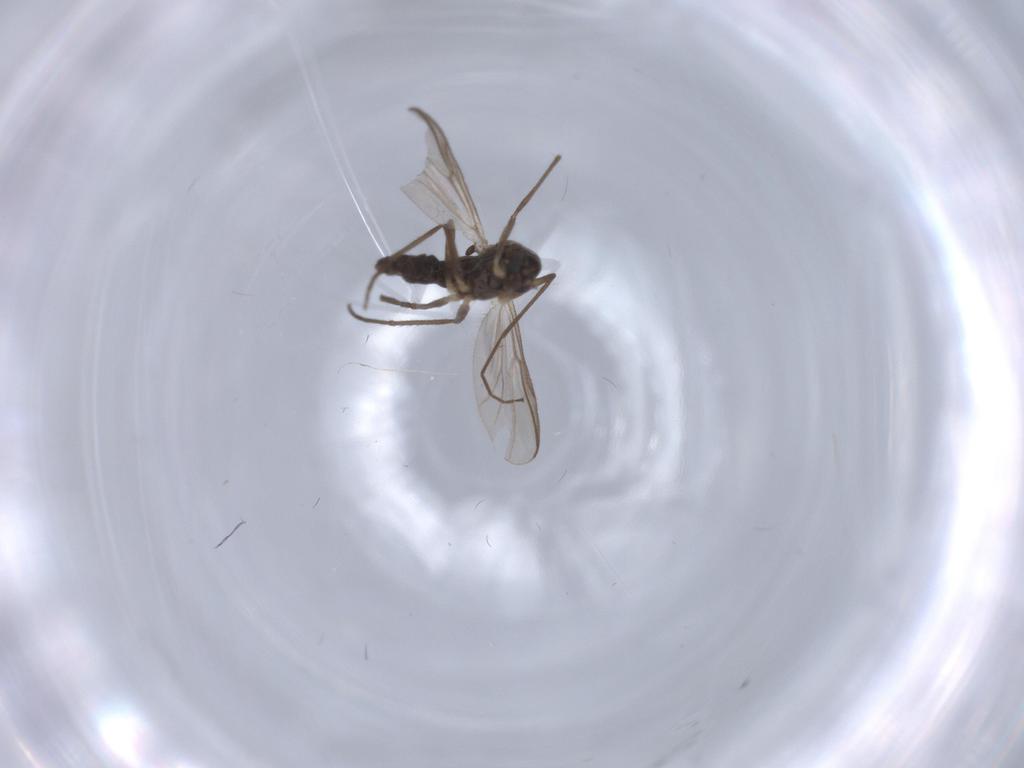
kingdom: Animalia
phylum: Arthropoda
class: Insecta
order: Diptera
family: Chironomidae
